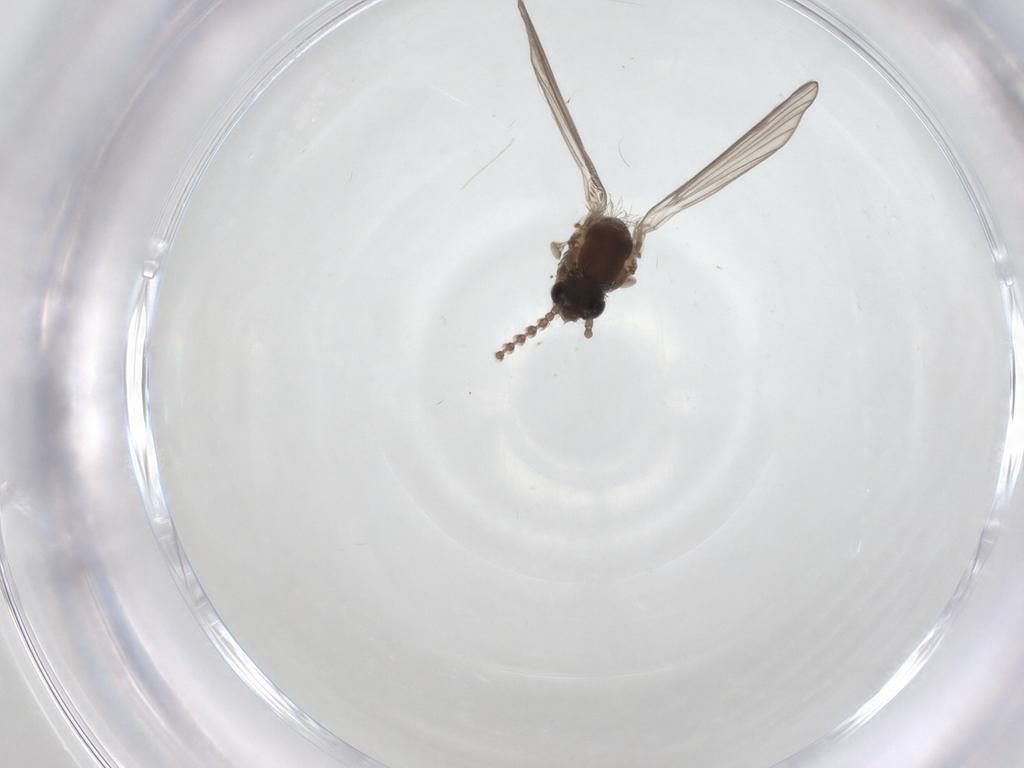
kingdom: Animalia
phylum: Arthropoda
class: Insecta
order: Diptera
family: Psychodidae
